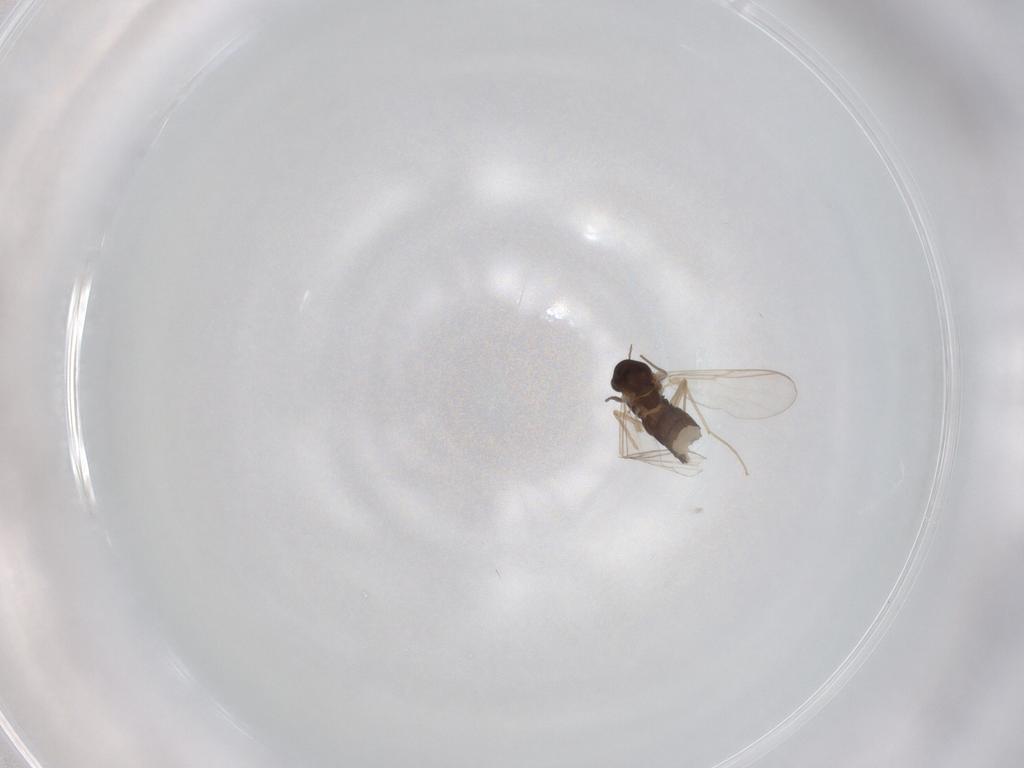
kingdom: Animalia
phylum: Arthropoda
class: Insecta
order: Diptera
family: Chironomidae
